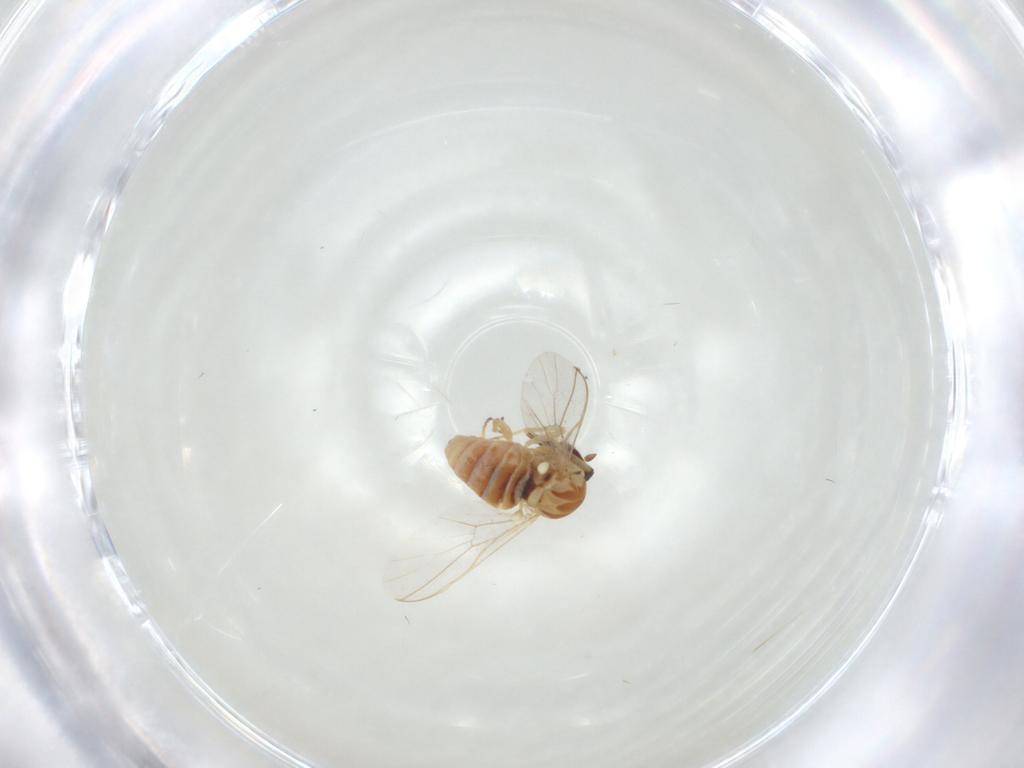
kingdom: Animalia
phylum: Arthropoda
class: Insecta
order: Diptera
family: Mythicomyiidae
